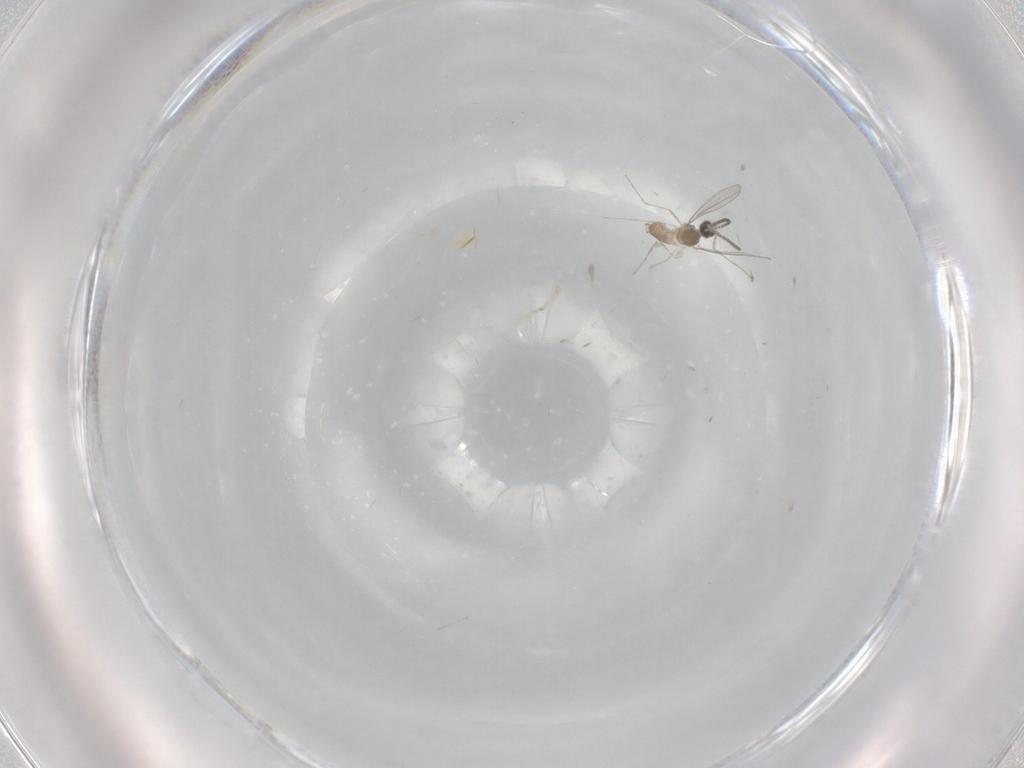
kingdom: Animalia
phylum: Arthropoda
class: Insecta
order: Diptera
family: Cecidomyiidae
